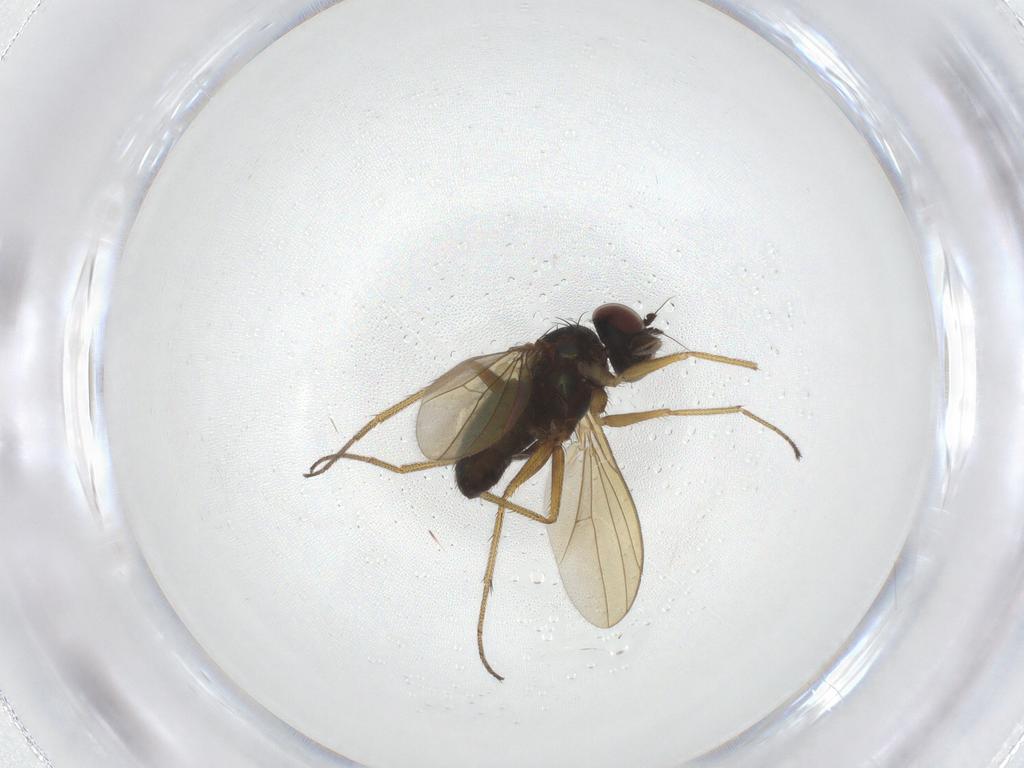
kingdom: Animalia
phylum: Arthropoda
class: Insecta
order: Diptera
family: Dolichopodidae
